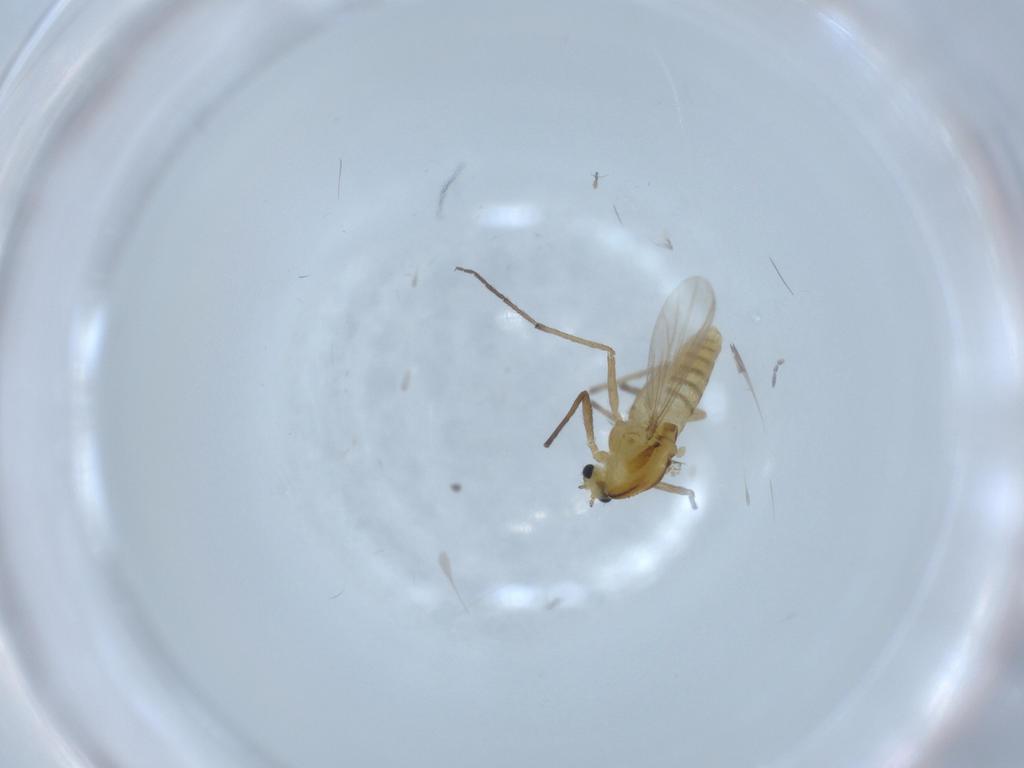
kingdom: Animalia
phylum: Arthropoda
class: Insecta
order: Diptera
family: Chironomidae
